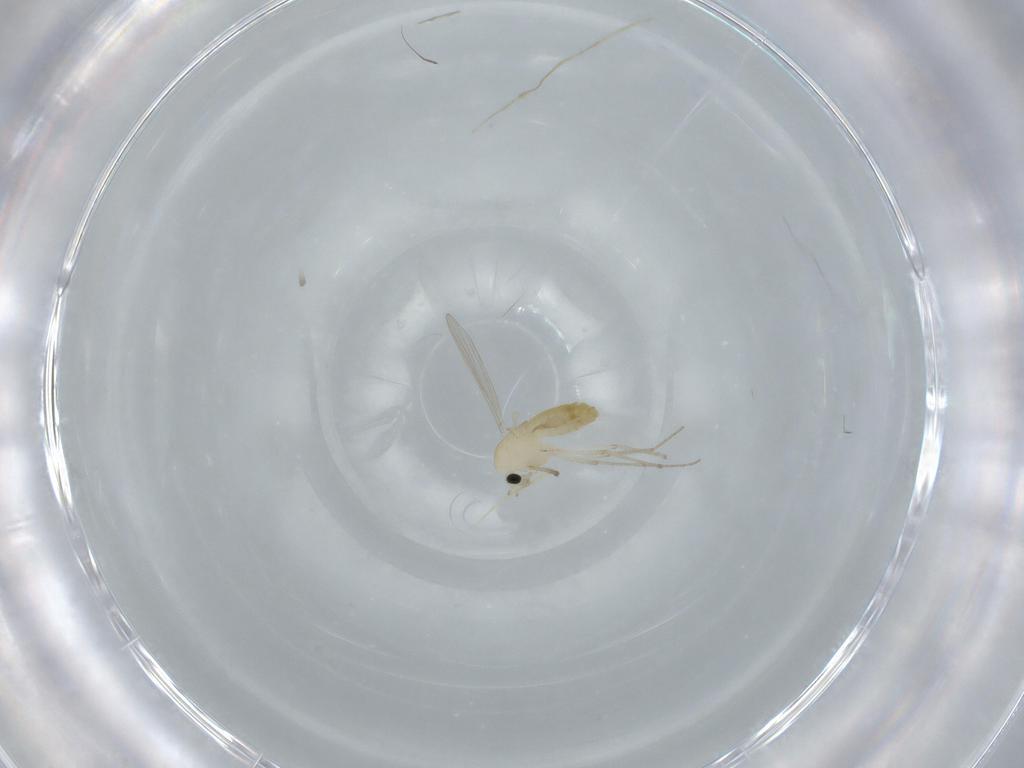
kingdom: Animalia
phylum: Arthropoda
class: Insecta
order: Diptera
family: Chironomidae
